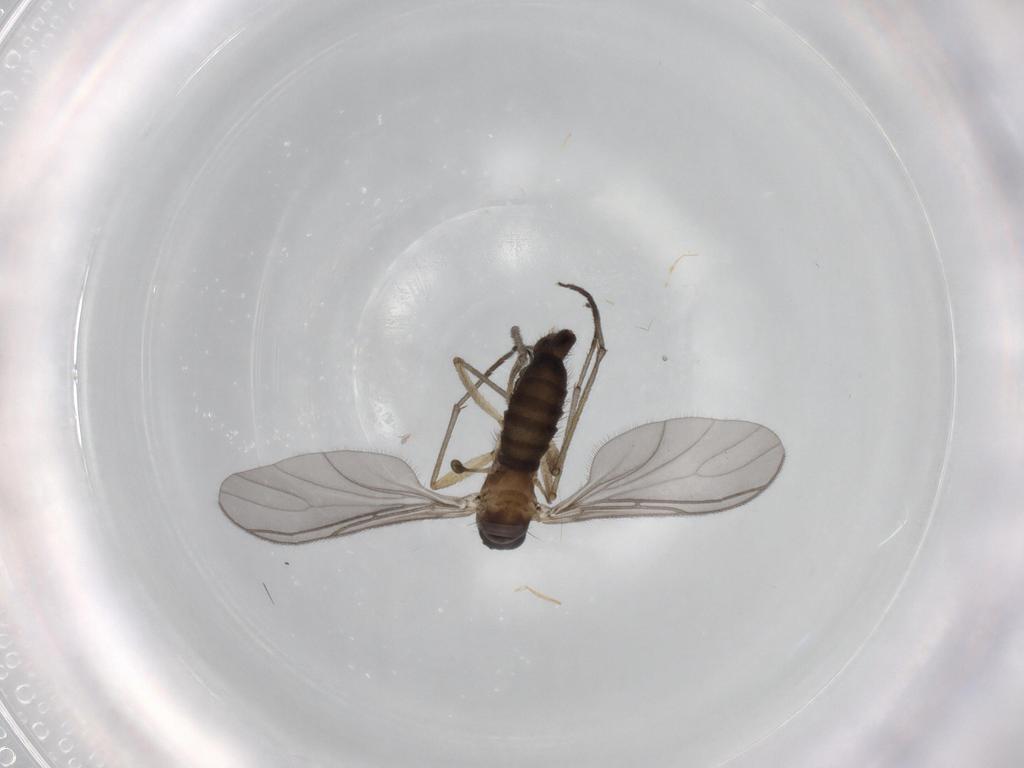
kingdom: Animalia
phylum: Arthropoda
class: Insecta
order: Diptera
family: Sciaridae
